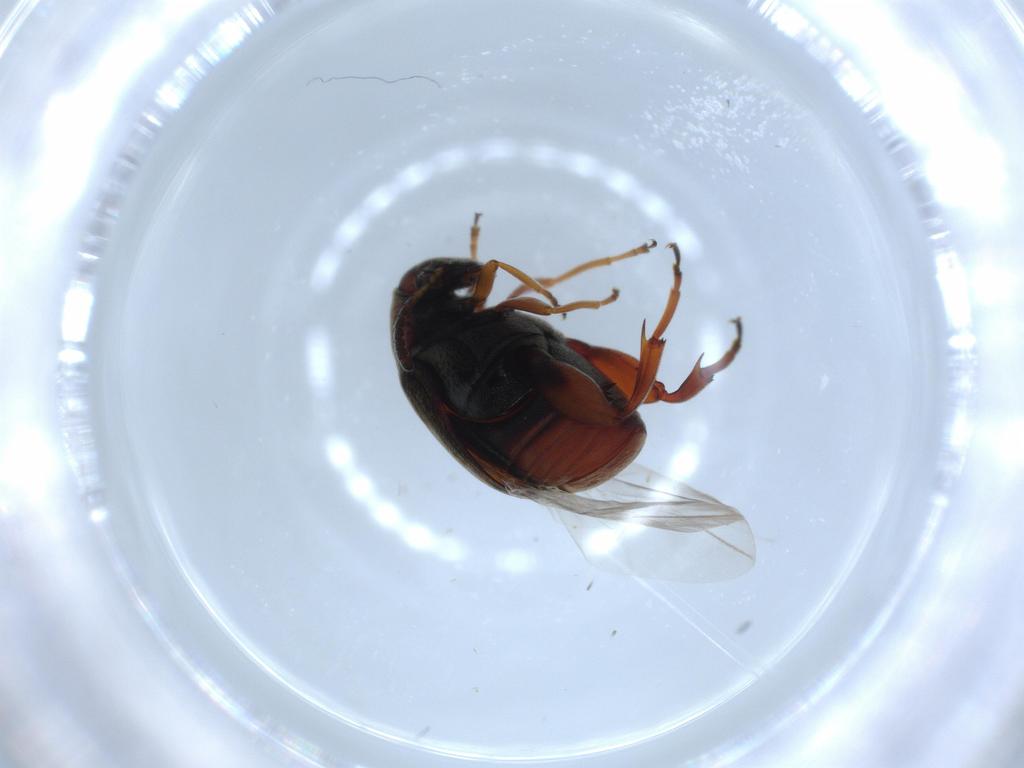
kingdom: Animalia
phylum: Arthropoda
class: Insecta
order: Coleoptera
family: Chrysomelidae
